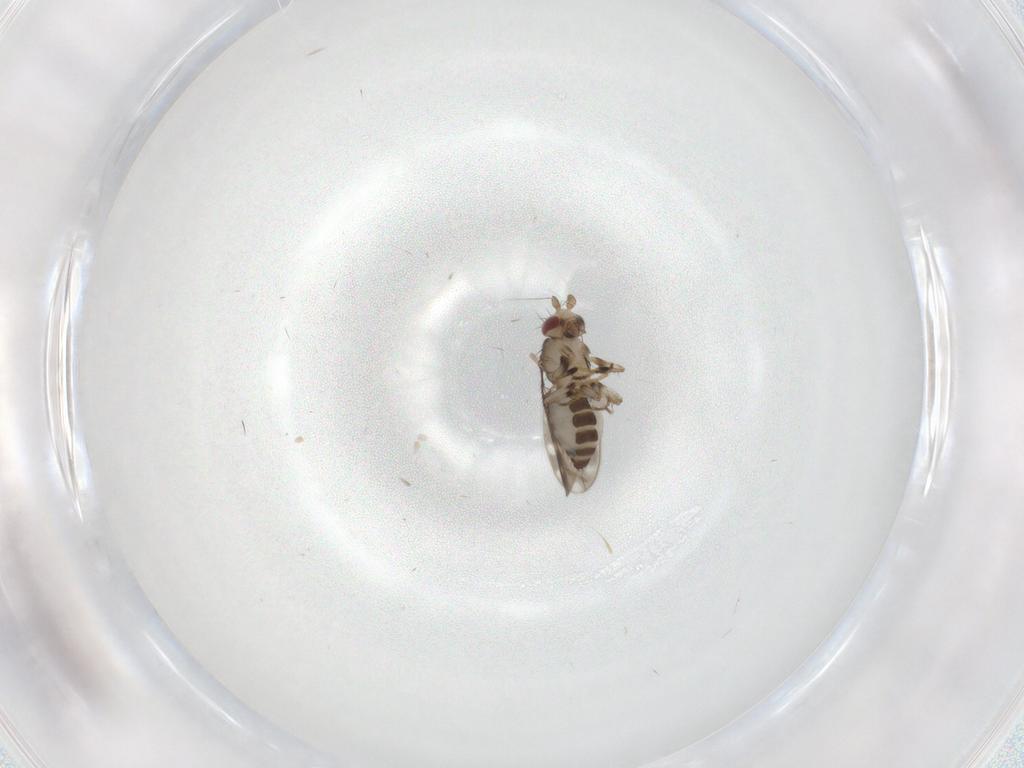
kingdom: Animalia
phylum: Arthropoda
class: Insecta
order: Diptera
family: Sphaeroceridae
